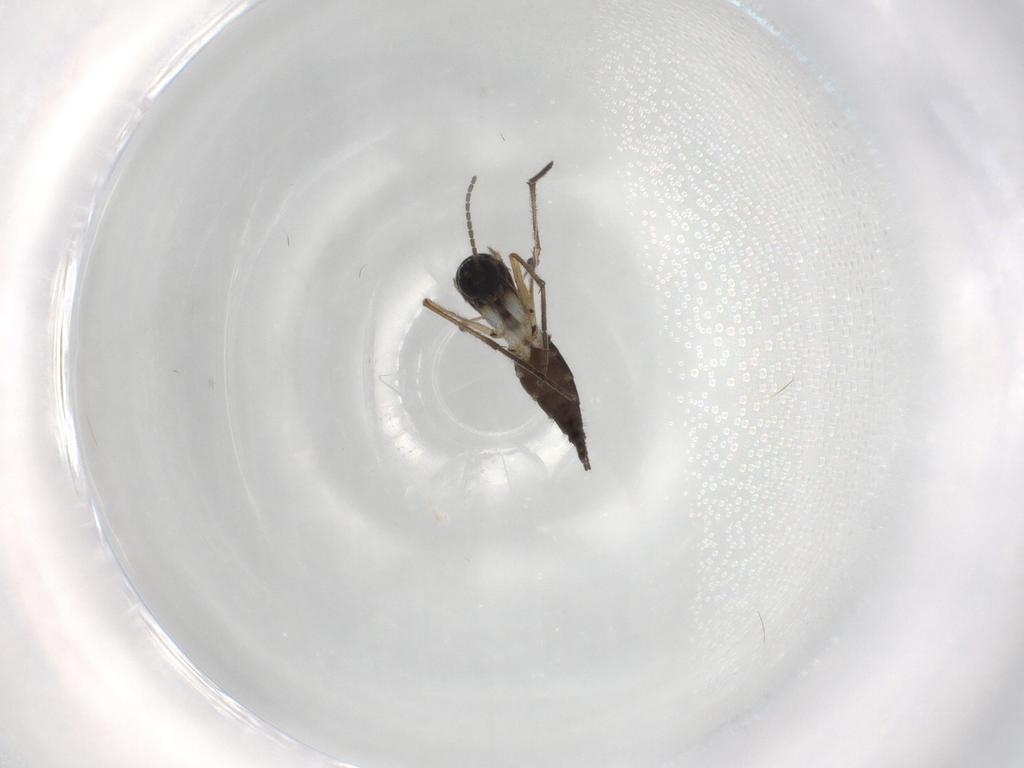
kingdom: Animalia
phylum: Arthropoda
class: Insecta
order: Diptera
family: Sciaridae
